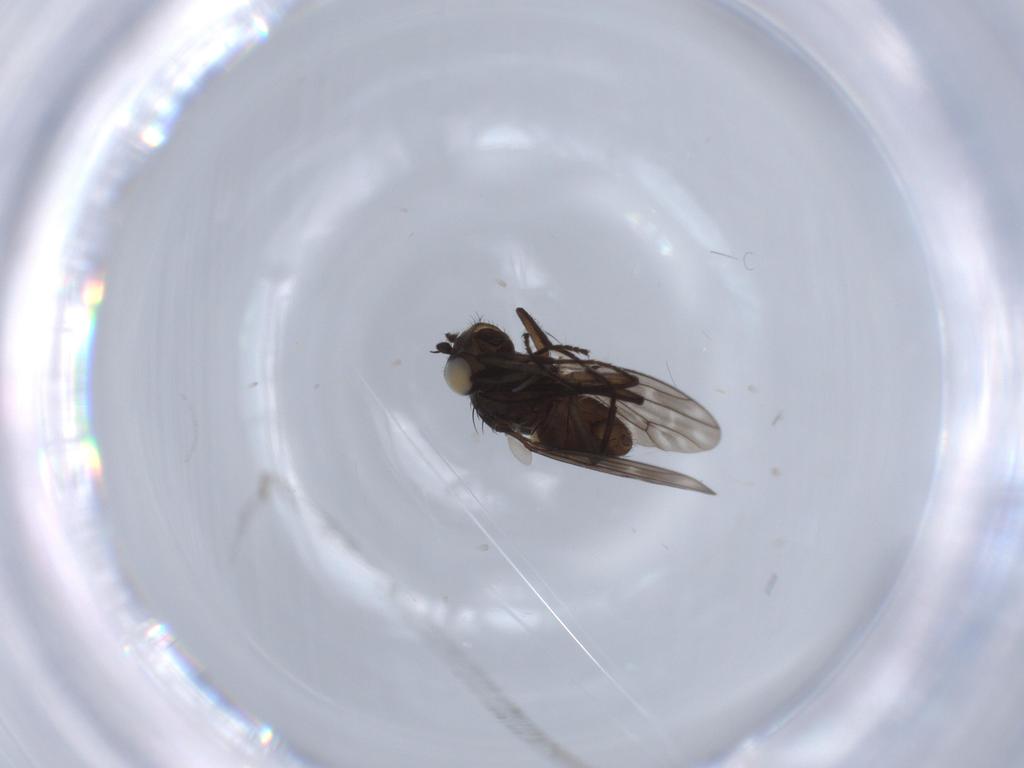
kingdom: Animalia
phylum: Arthropoda
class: Insecta
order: Diptera
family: Ephydridae
